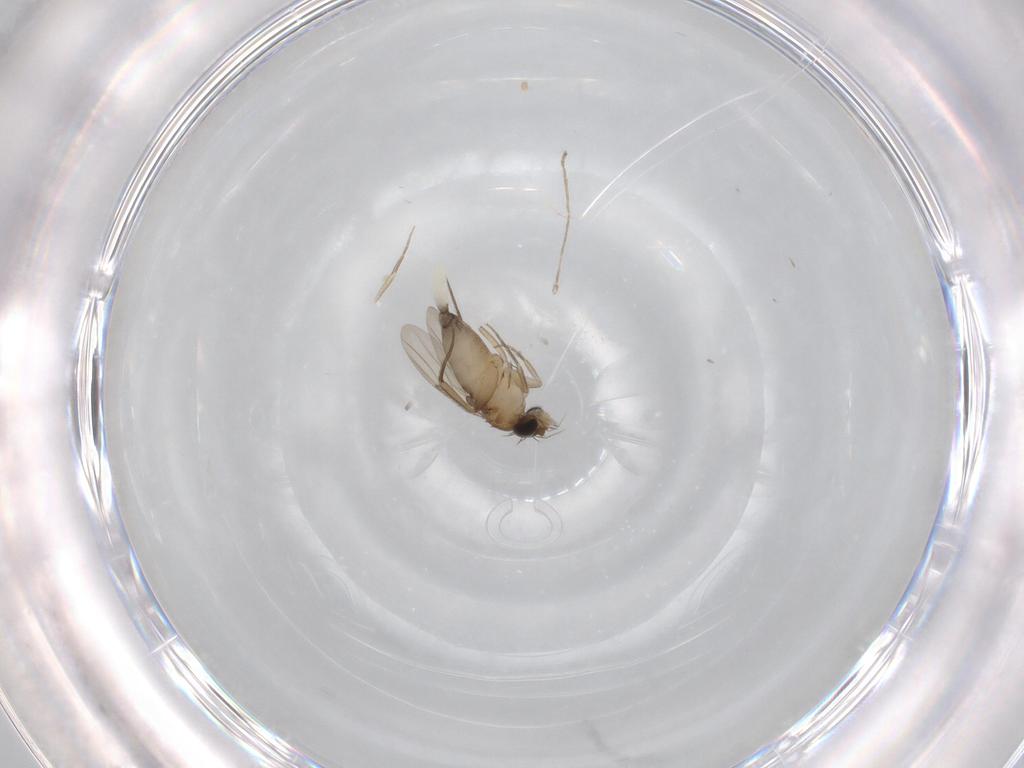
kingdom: Animalia
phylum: Arthropoda
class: Insecta
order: Diptera
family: Phoridae
